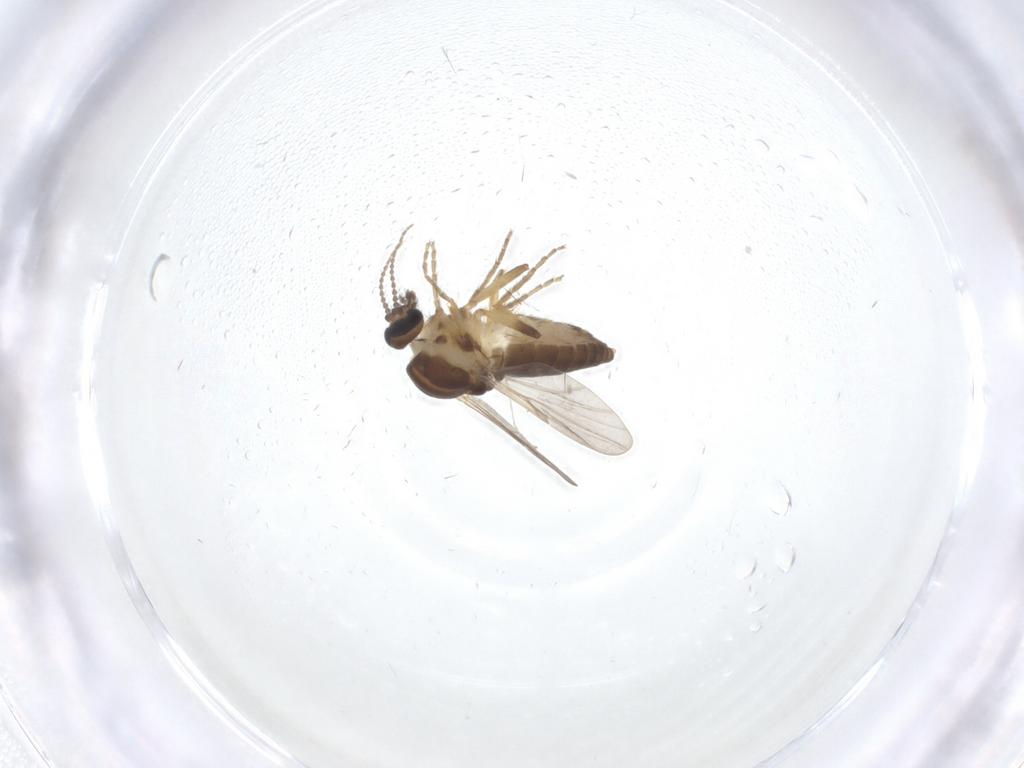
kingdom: Animalia
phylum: Arthropoda
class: Insecta
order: Diptera
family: Ceratopogonidae
